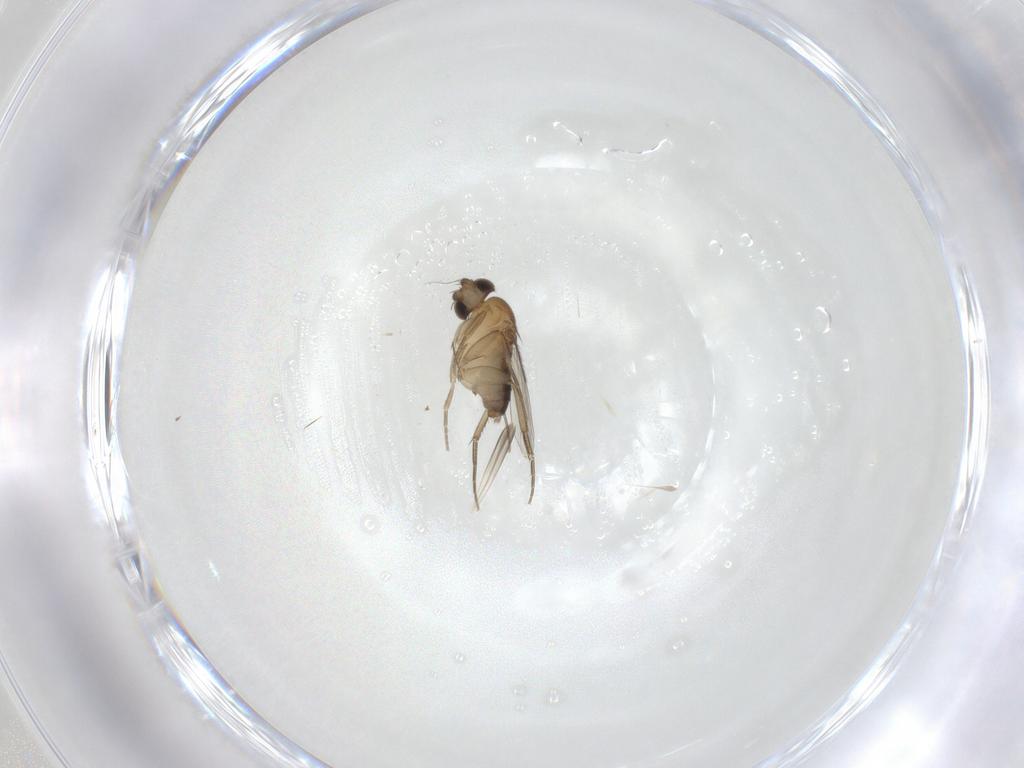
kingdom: Animalia
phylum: Arthropoda
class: Insecta
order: Diptera
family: Phoridae
